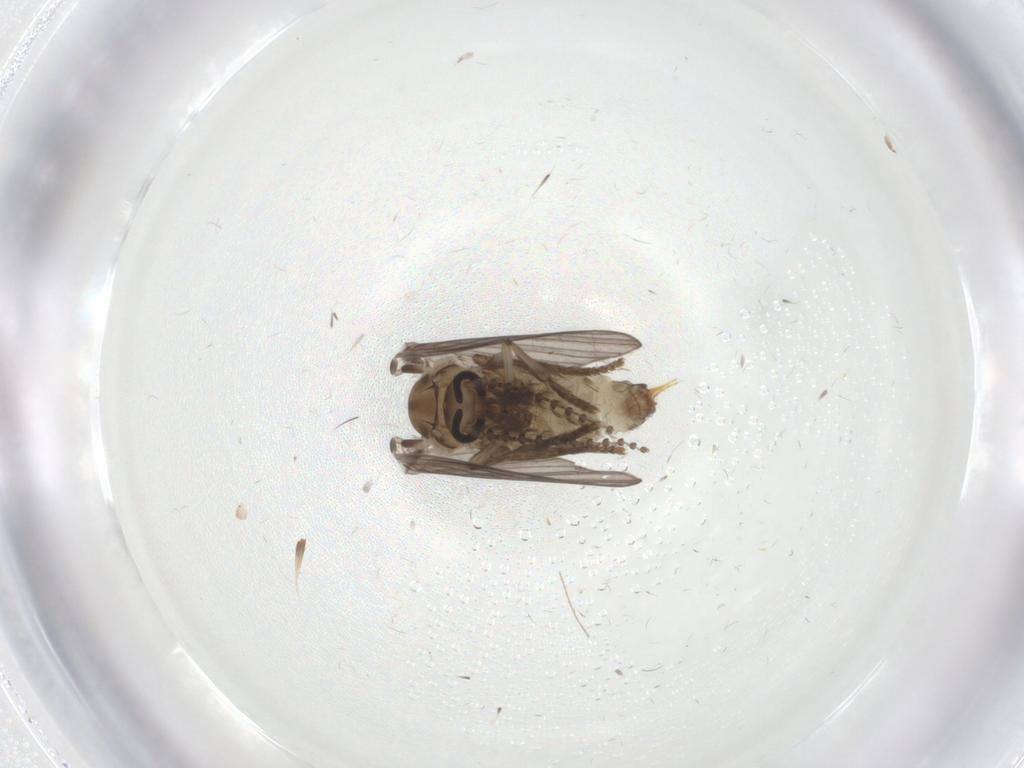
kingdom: Animalia
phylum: Arthropoda
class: Insecta
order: Diptera
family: Psychodidae
